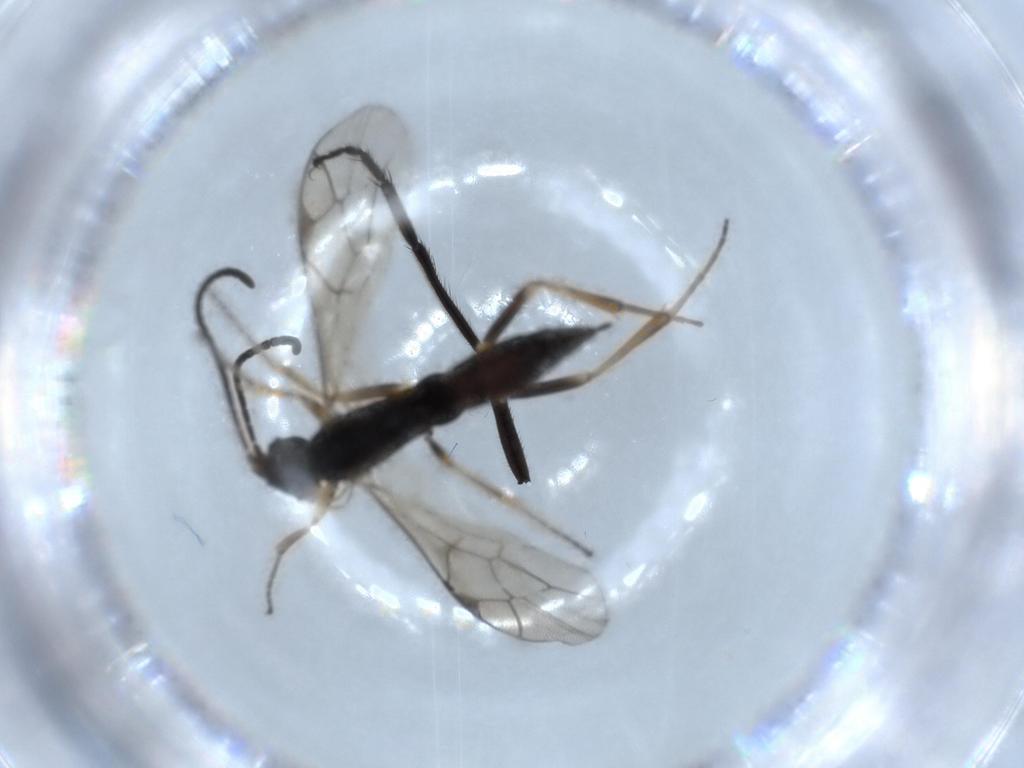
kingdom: Animalia
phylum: Arthropoda
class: Insecta
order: Hymenoptera
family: Ichneumonidae
